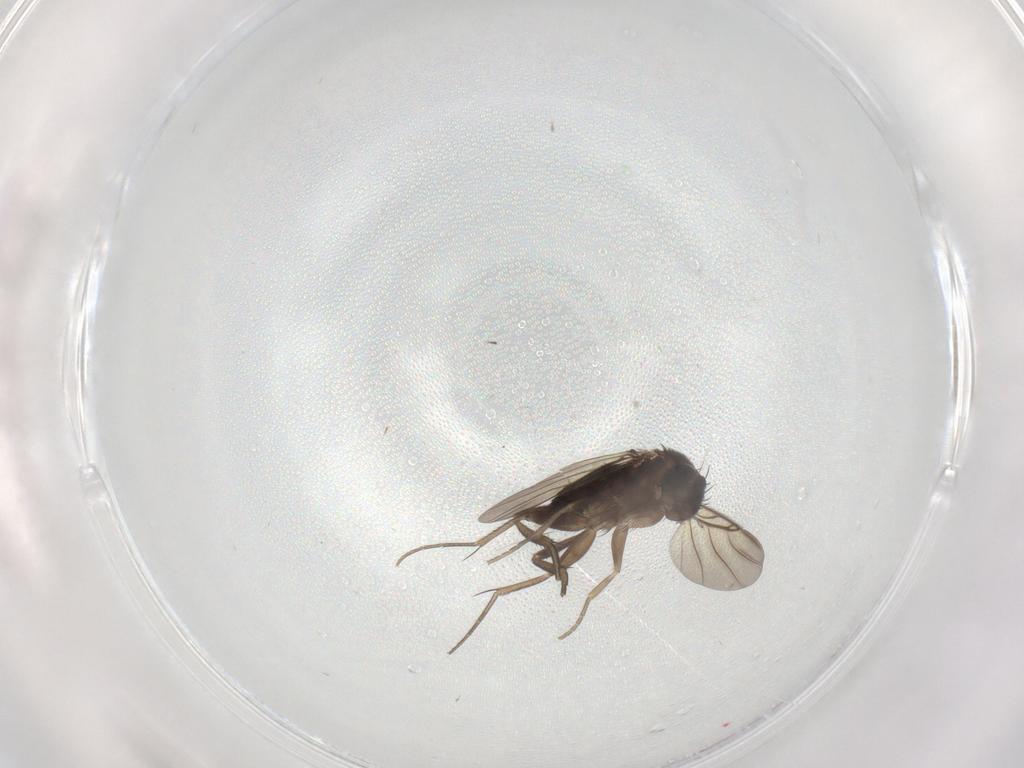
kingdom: Animalia
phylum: Arthropoda
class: Insecta
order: Diptera
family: Phoridae
